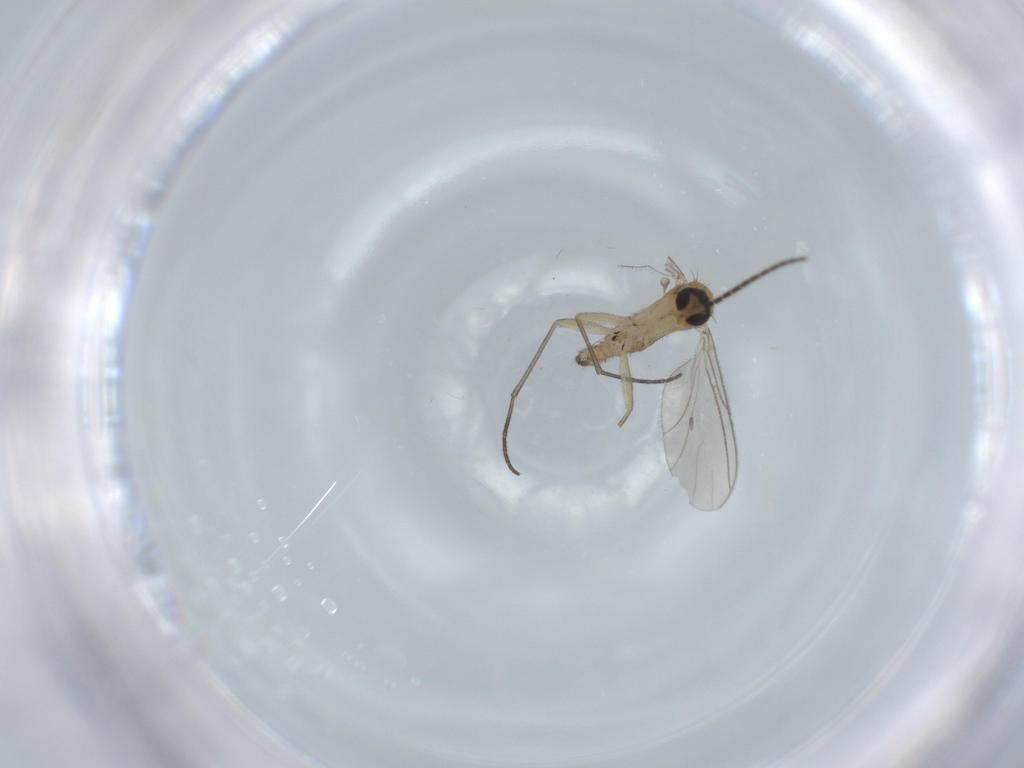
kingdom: Animalia
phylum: Arthropoda
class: Insecta
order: Diptera
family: Sciaridae
